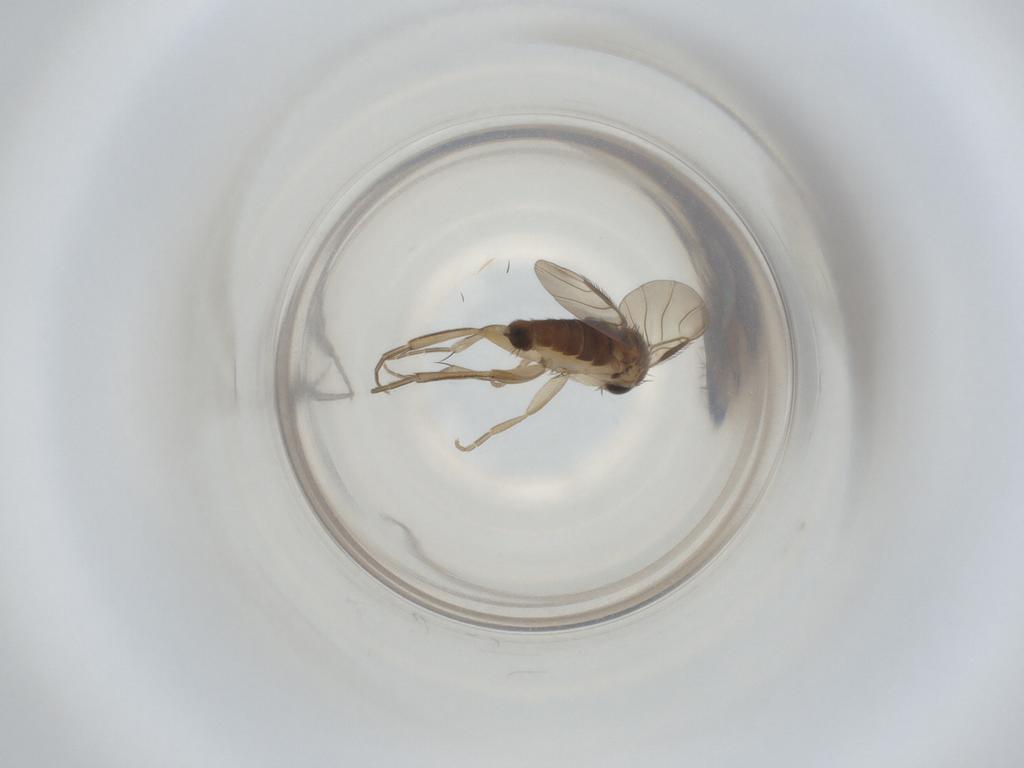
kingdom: Animalia
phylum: Arthropoda
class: Insecta
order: Diptera
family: Phoridae
